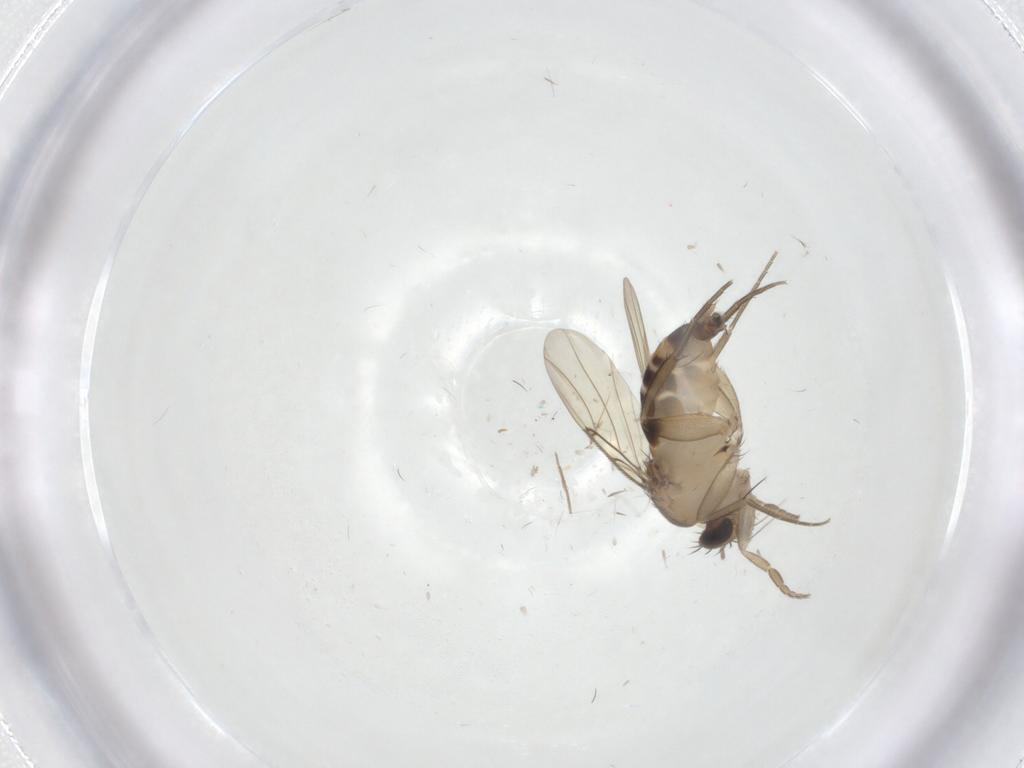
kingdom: Animalia
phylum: Arthropoda
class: Insecta
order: Diptera
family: Phoridae
